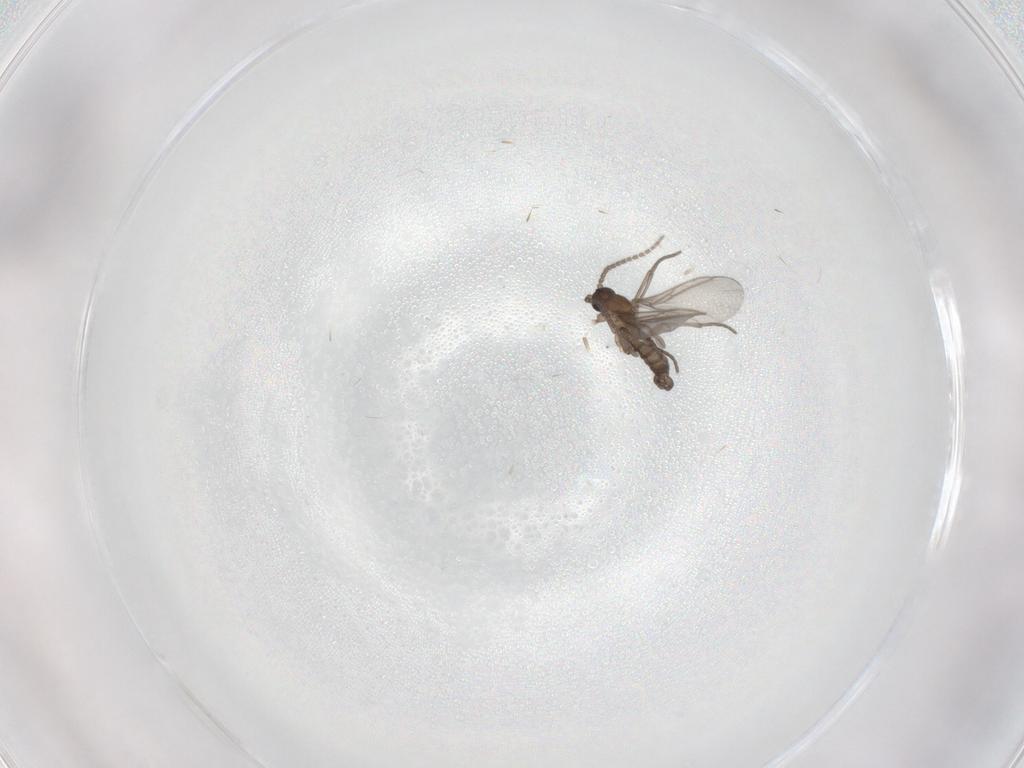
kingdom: Animalia
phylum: Arthropoda
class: Insecta
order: Diptera
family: Sciaridae
